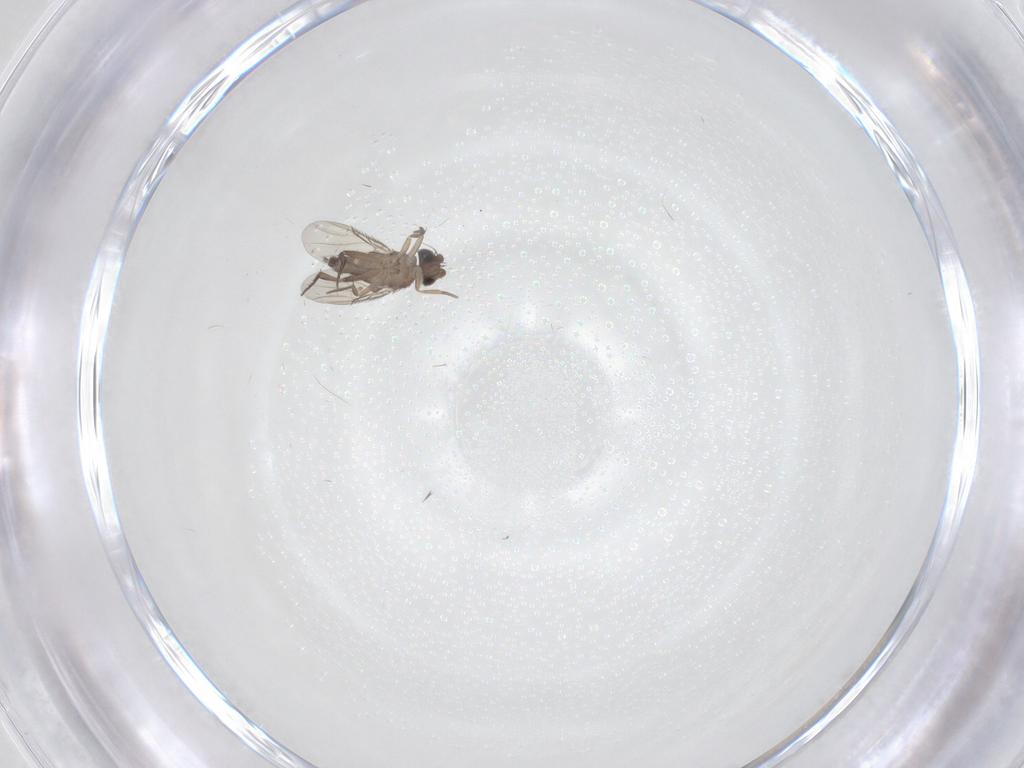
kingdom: Animalia
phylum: Arthropoda
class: Insecta
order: Diptera
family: Phoridae
